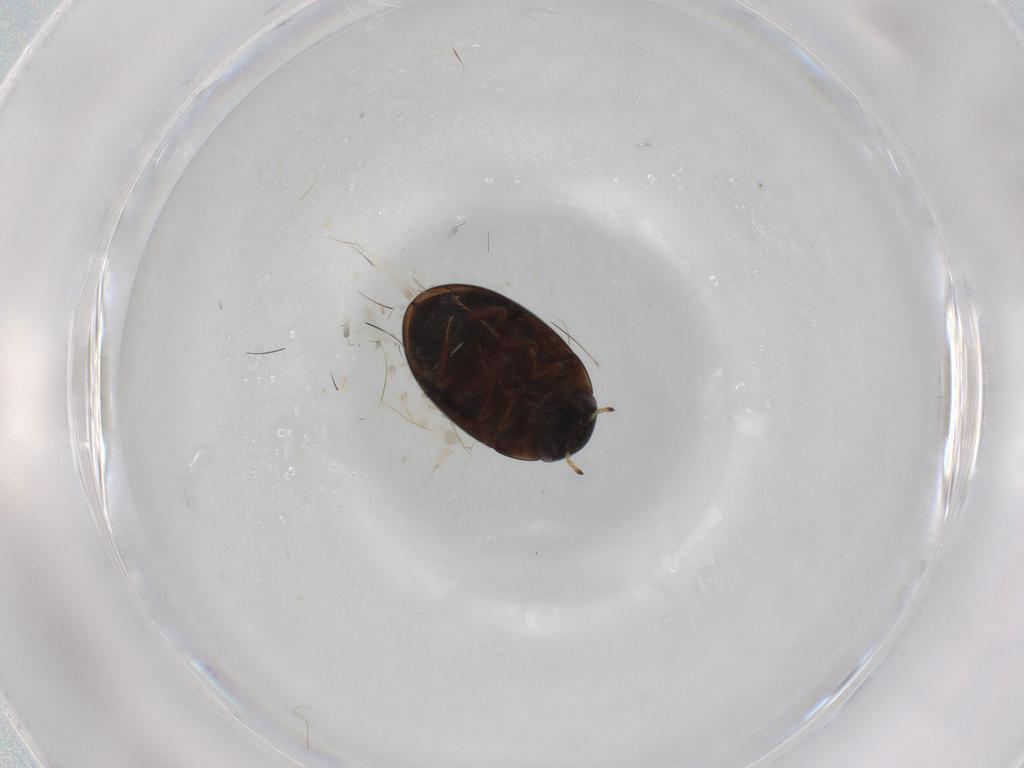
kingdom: Animalia
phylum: Arthropoda
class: Insecta
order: Coleoptera
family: Hydrophilidae
